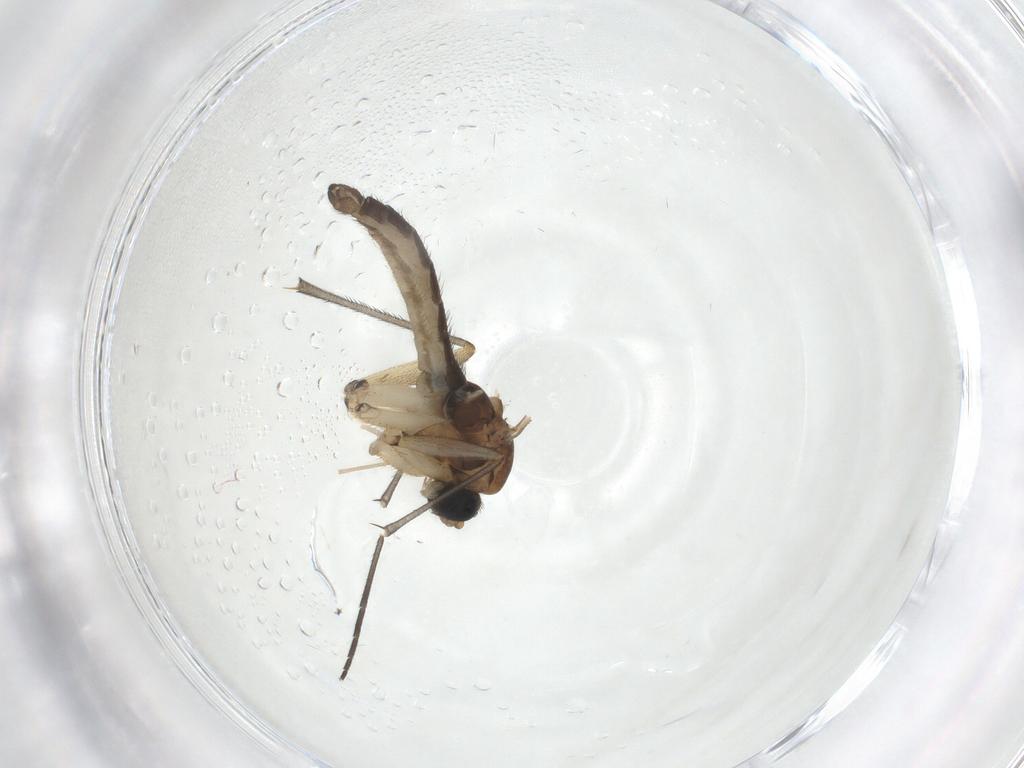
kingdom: Animalia
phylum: Arthropoda
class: Insecta
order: Diptera
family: Sciaridae
